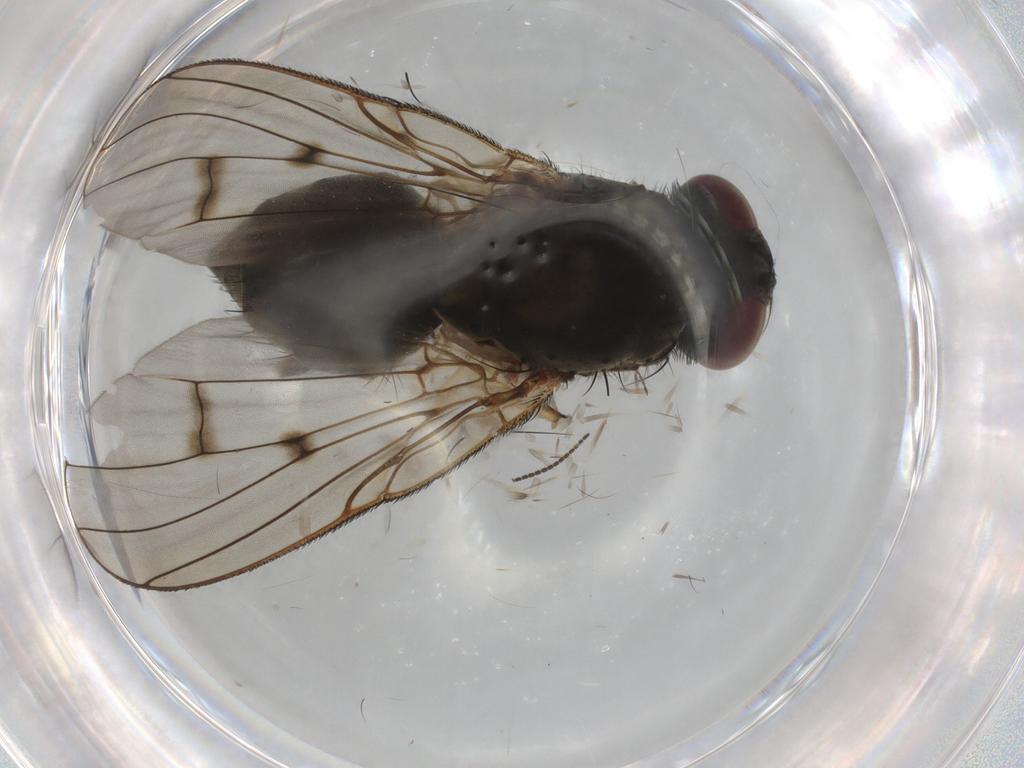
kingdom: Animalia
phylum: Arthropoda
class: Insecta
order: Diptera
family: Muscidae
